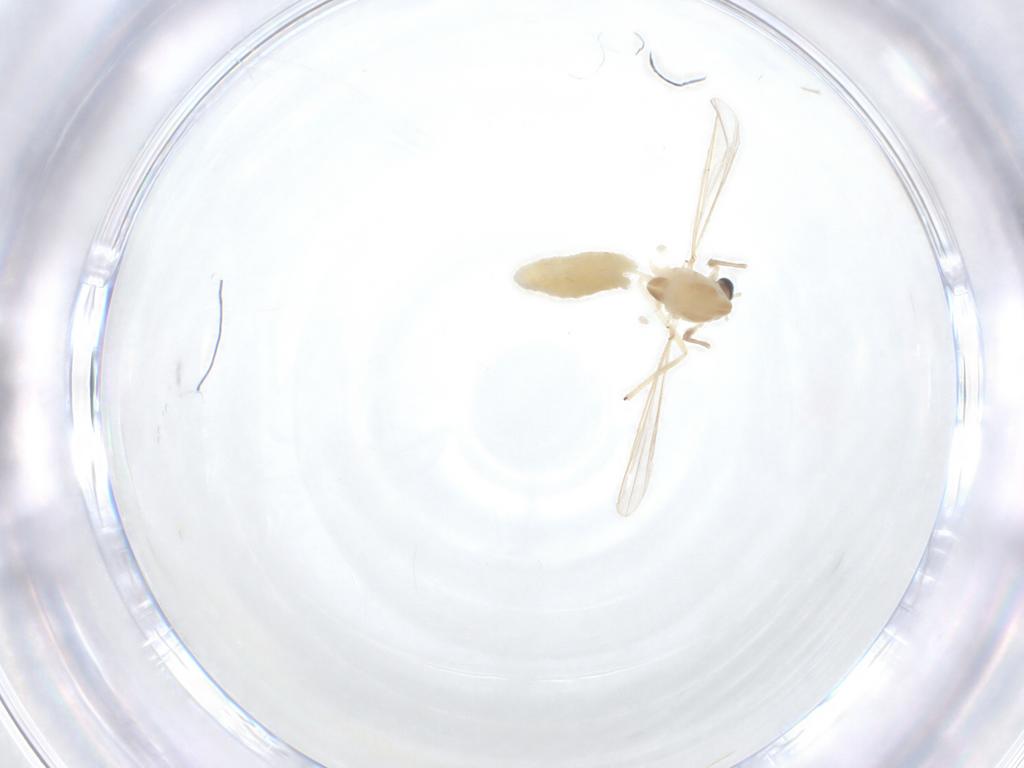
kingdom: Animalia
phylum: Arthropoda
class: Insecta
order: Diptera
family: Chironomidae
